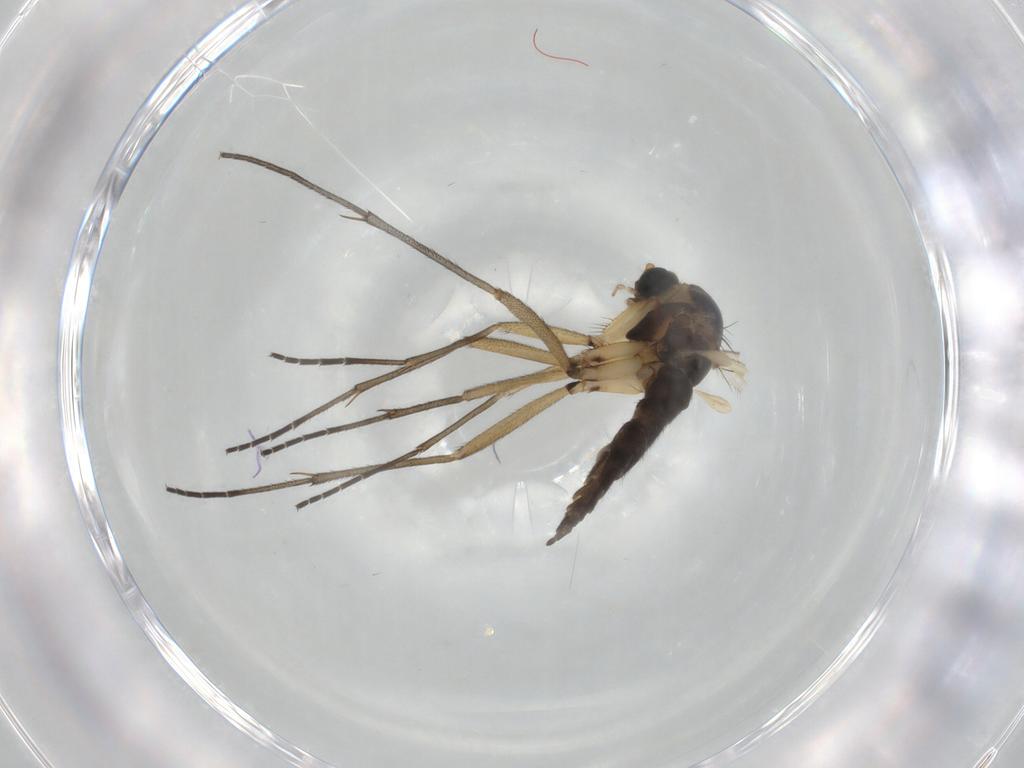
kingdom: Animalia
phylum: Arthropoda
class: Insecta
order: Diptera
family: Sciaridae
